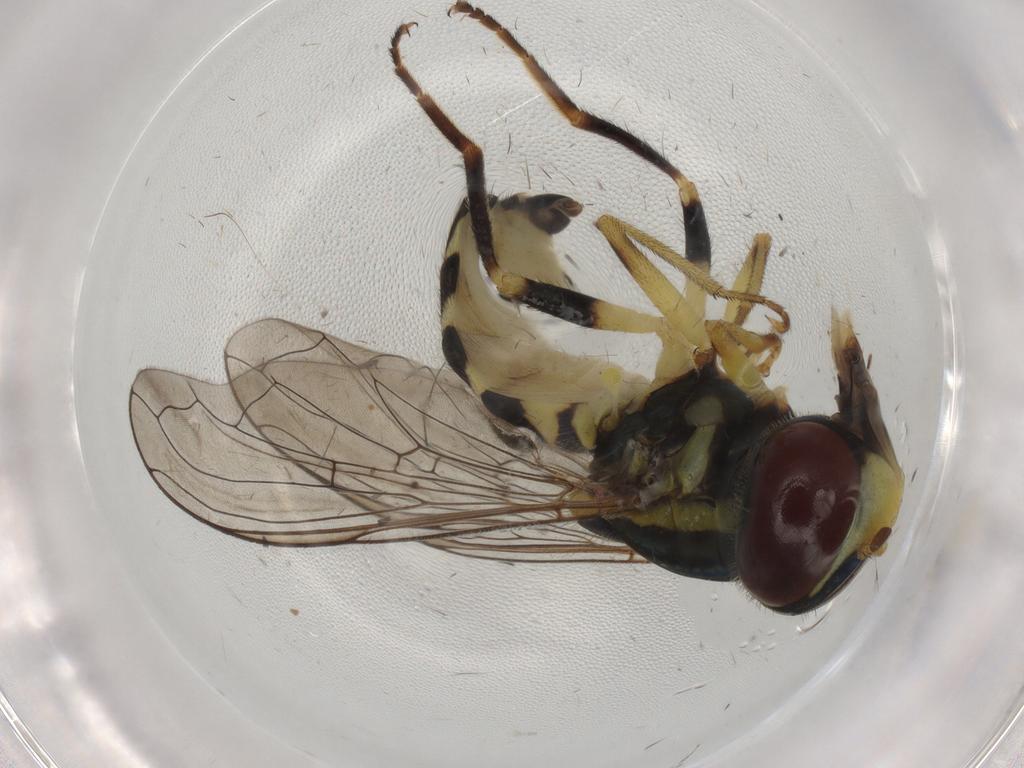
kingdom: Animalia
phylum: Arthropoda
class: Insecta
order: Diptera
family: Syrphidae
